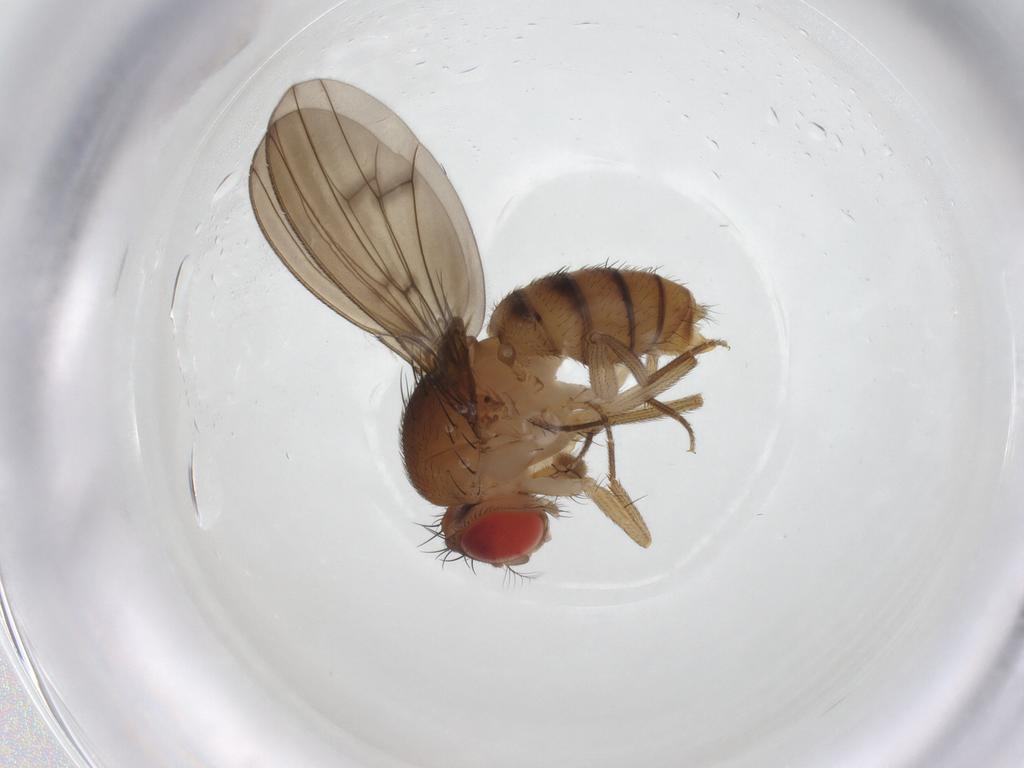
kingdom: Animalia
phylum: Arthropoda
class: Insecta
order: Diptera
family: Drosophilidae
